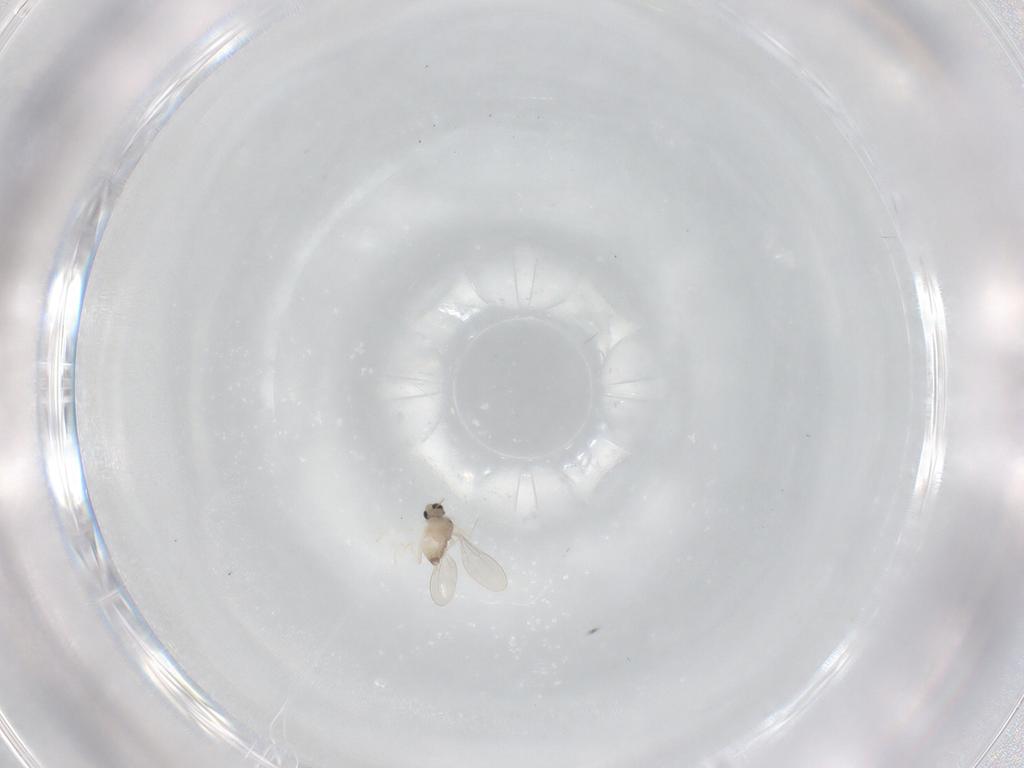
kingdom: Animalia
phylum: Arthropoda
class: Insecta
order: Diptera
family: Cecidomyiidae
